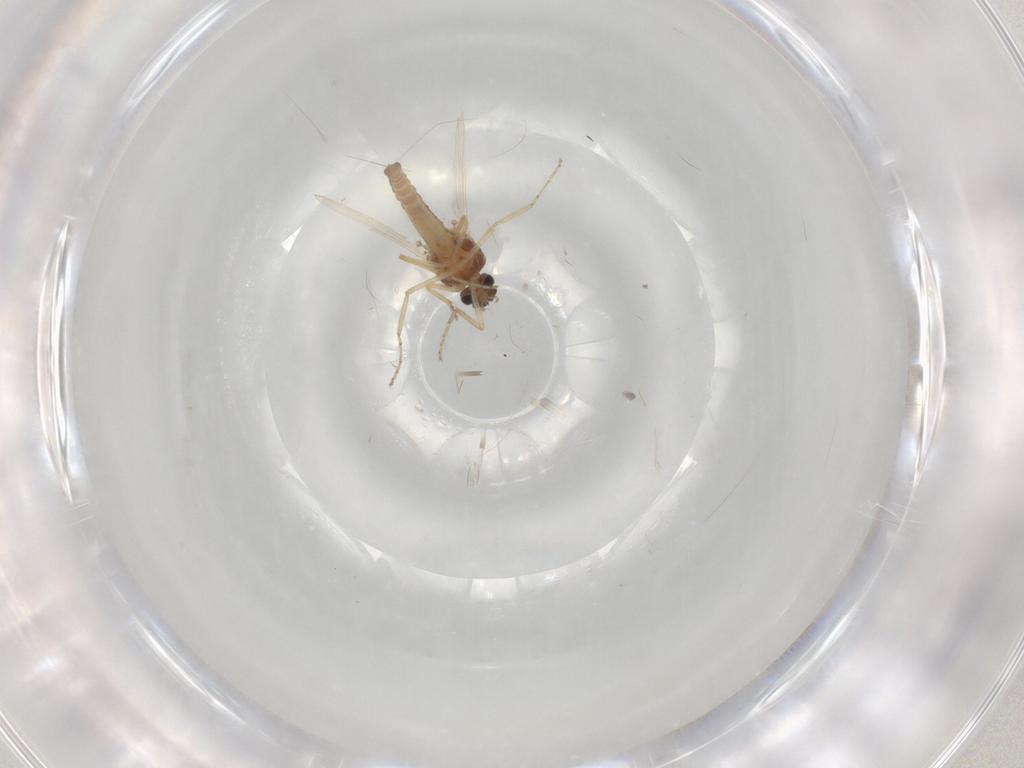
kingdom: Animalia
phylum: Arthropoda
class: Insecta
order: Diptera
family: Ceratopogonidae
